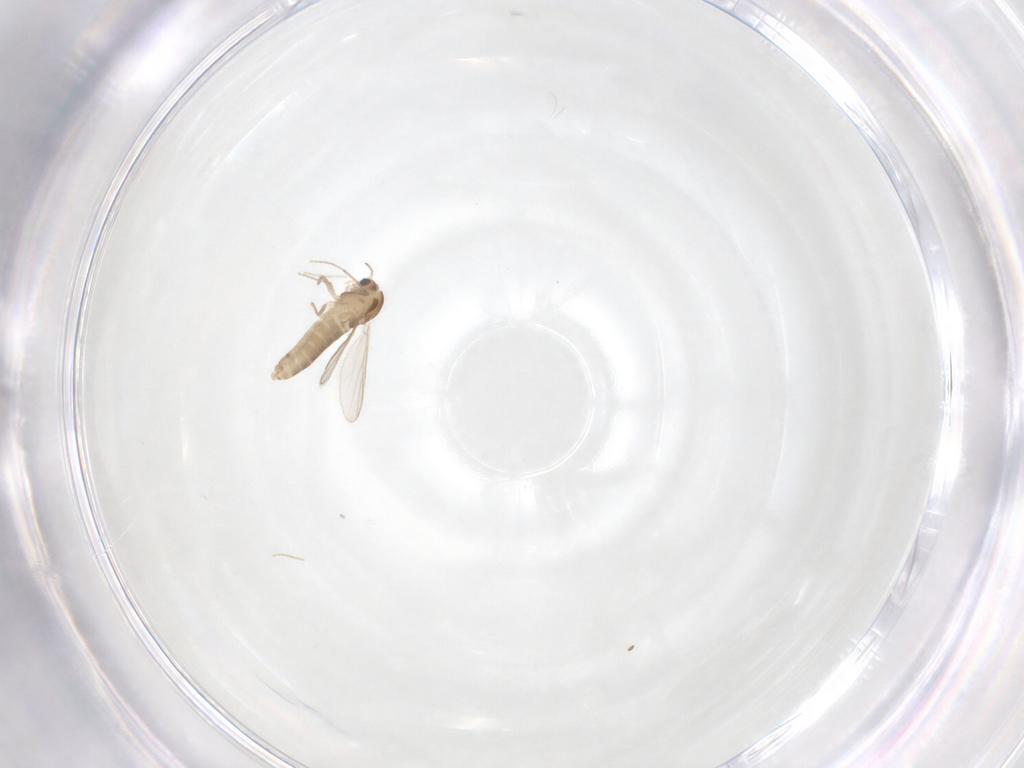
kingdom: Animalia
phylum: Arthropoda
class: Insecta
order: Diptera
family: Chironomidae
